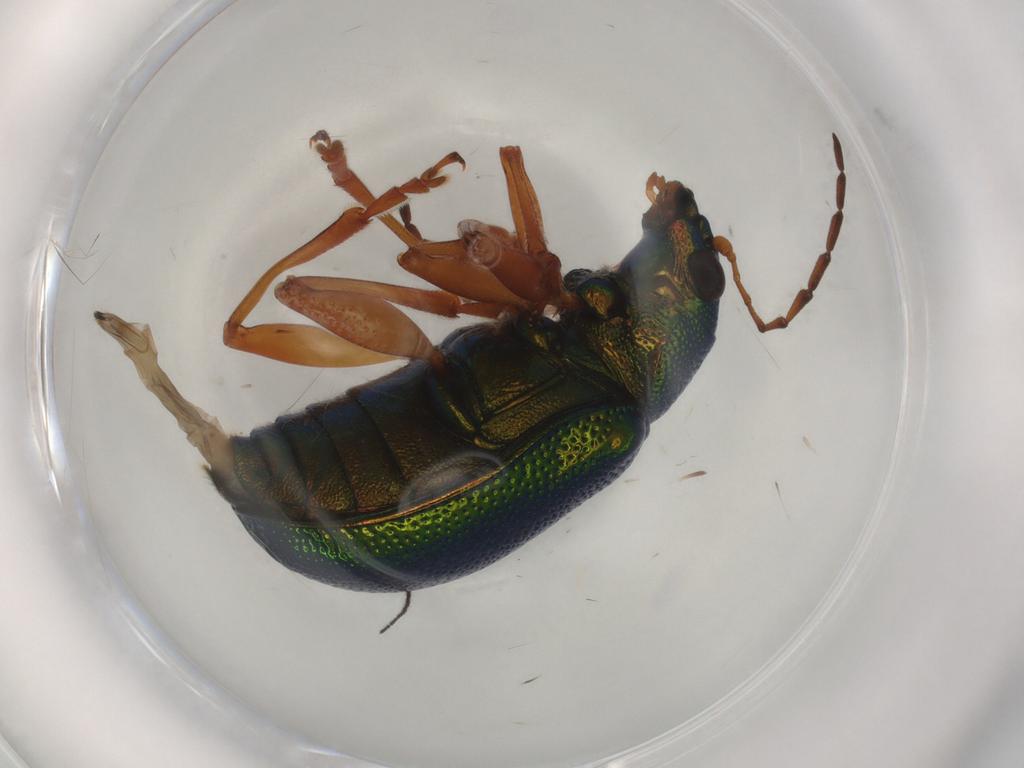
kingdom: Animalia
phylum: Arthropoda
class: Insecta
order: Coleoptera
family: Chrysomelidae
